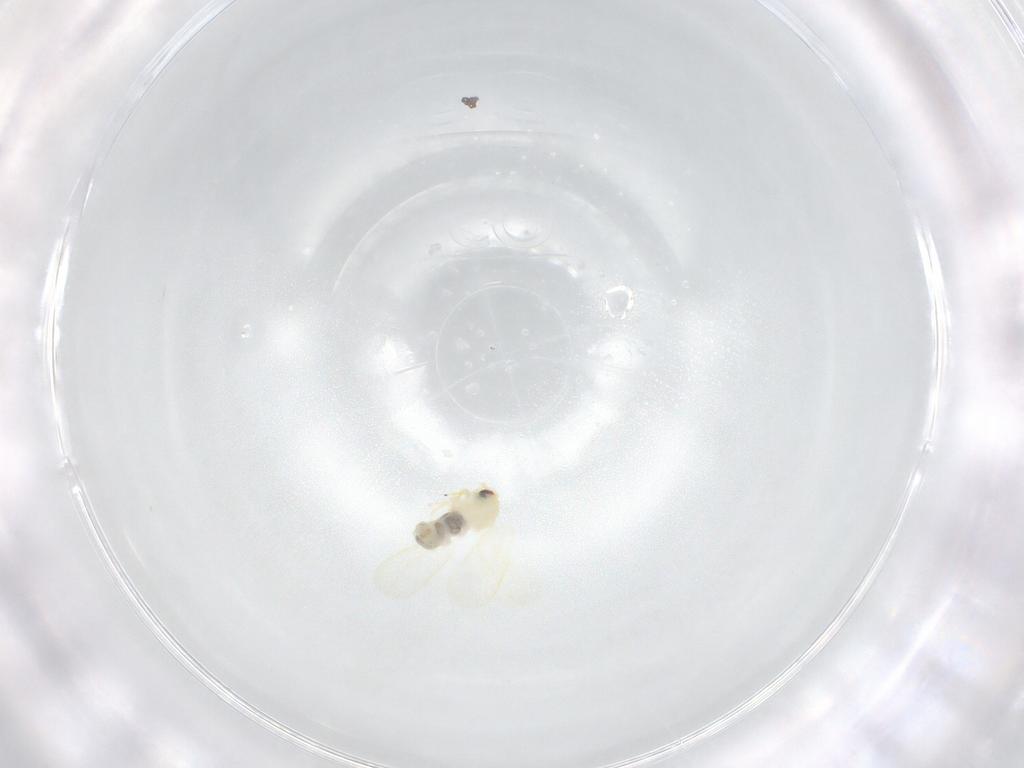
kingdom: Animalia
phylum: Arthropoda
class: Insecta
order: Hemiptera
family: Aleyrodidae
